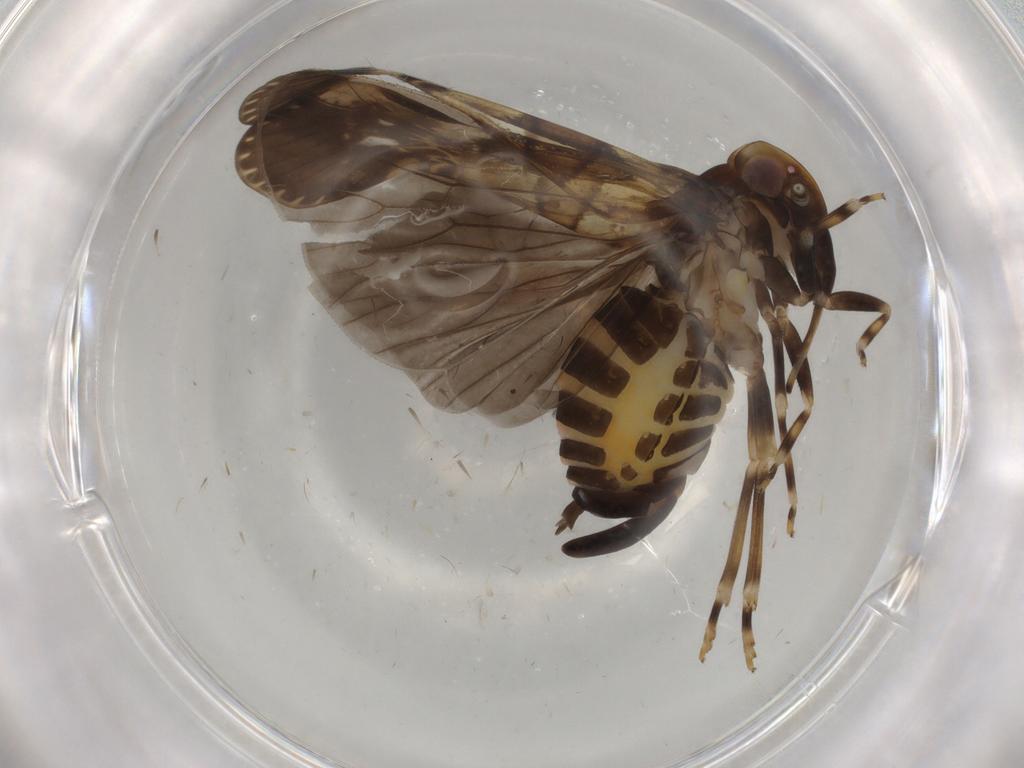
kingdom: Animalia
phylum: Arthropoda
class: Insecta
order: Hemiptera
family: Cixiidae
